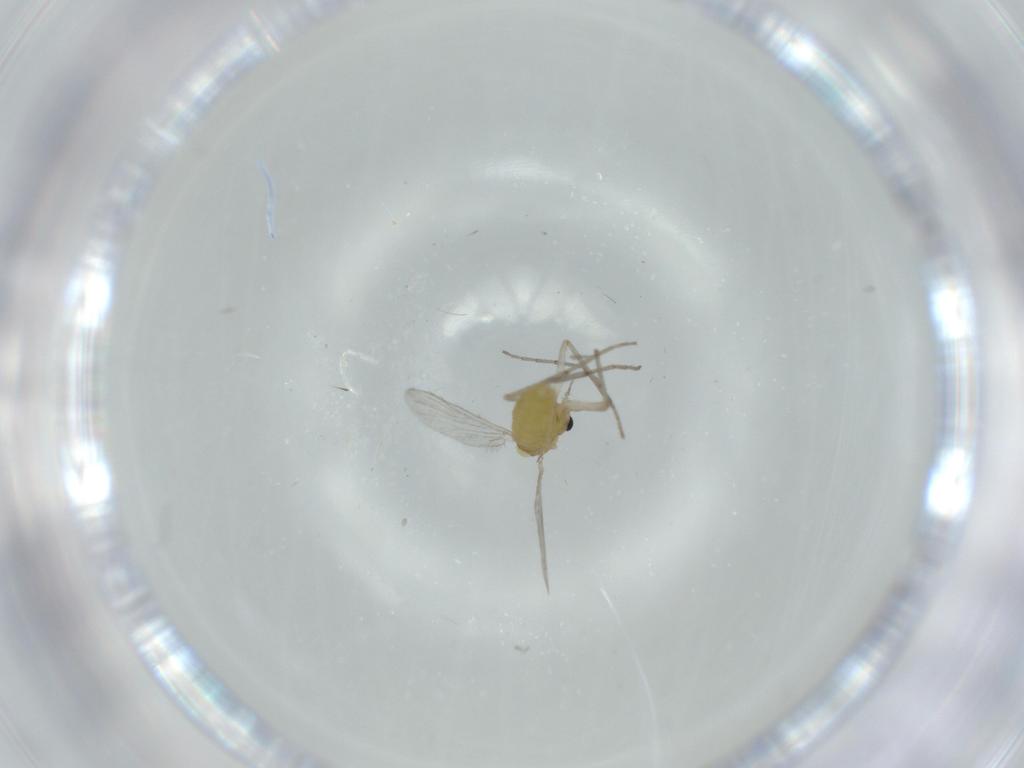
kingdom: Animalia
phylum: Arthropoda
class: Insecta
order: Diptera
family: Chironomidae
